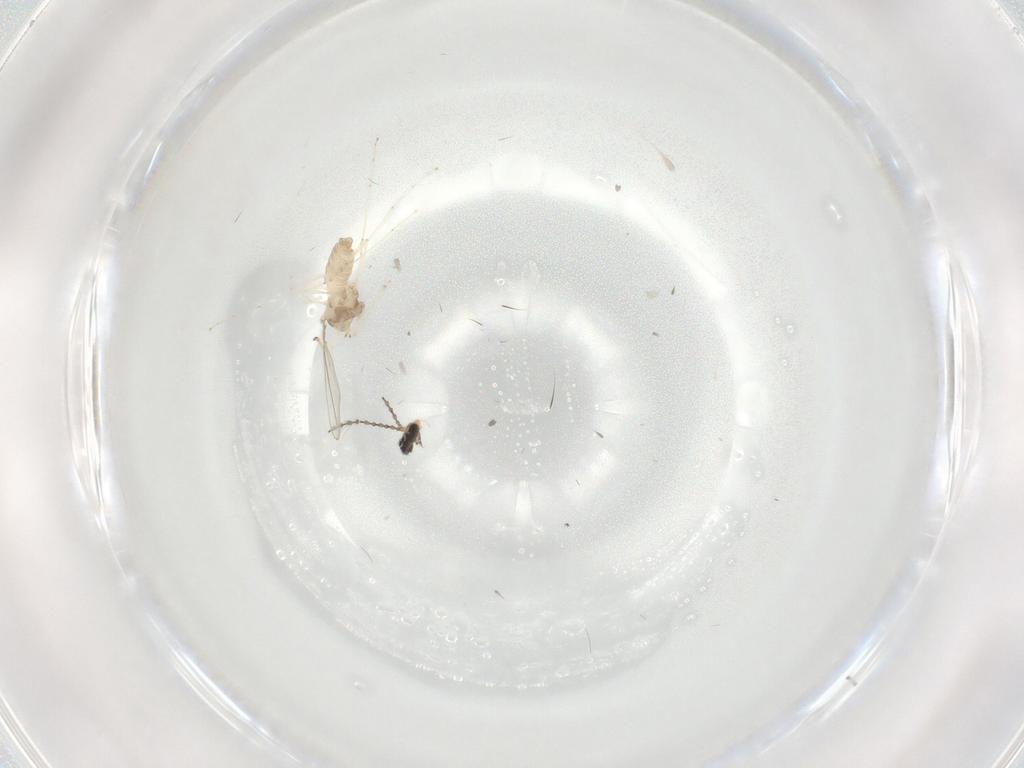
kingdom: Animalia
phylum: Arthropoda
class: Insecta
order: Diptera
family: Cecidomyiidae
